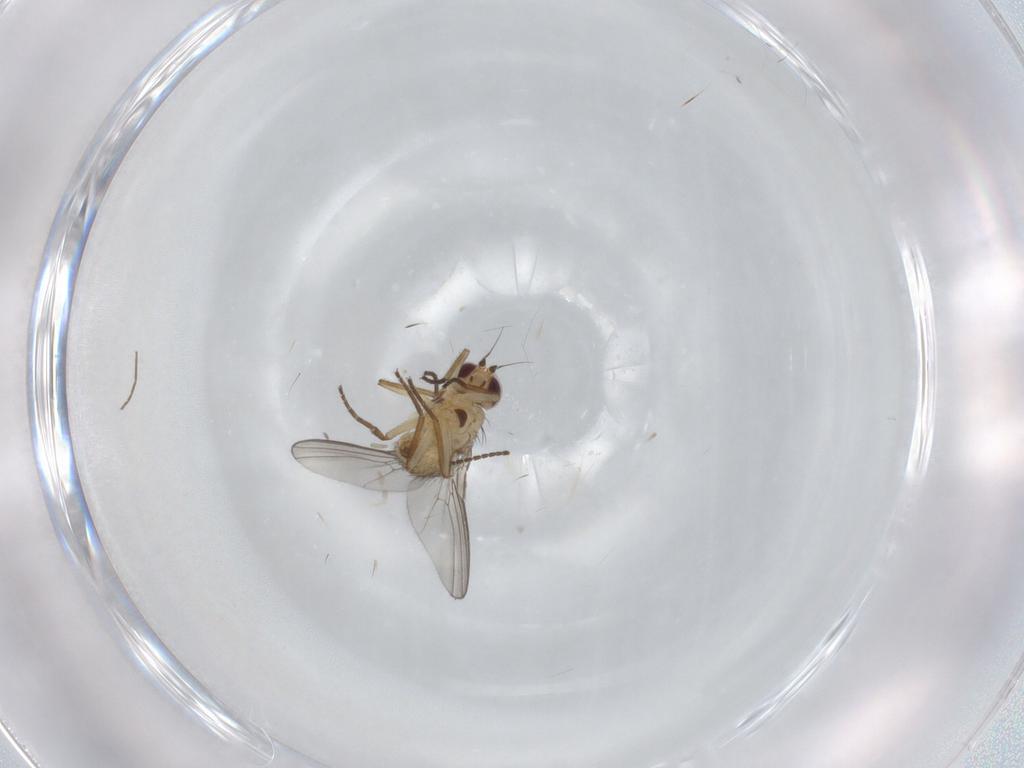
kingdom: Animalia
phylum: Arthropoda
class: Insecta
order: Diptera
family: Agromyzidae
